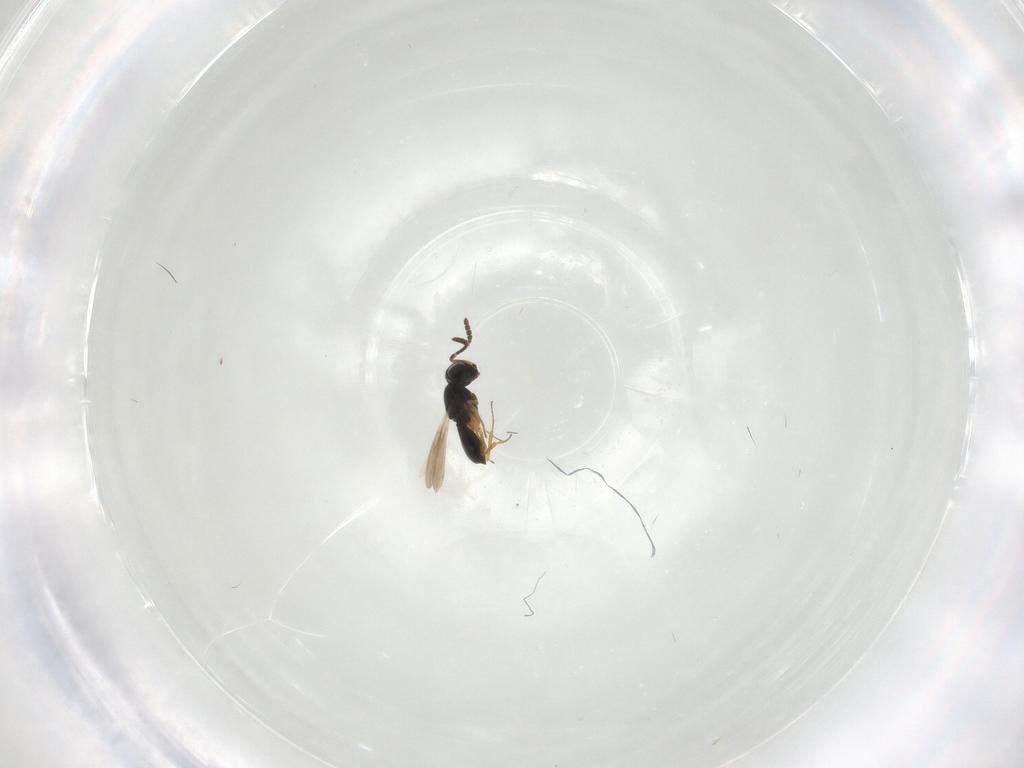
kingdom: Animalia
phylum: Arthropoda
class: Insecta
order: Hymenoptera
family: Scelionidae
